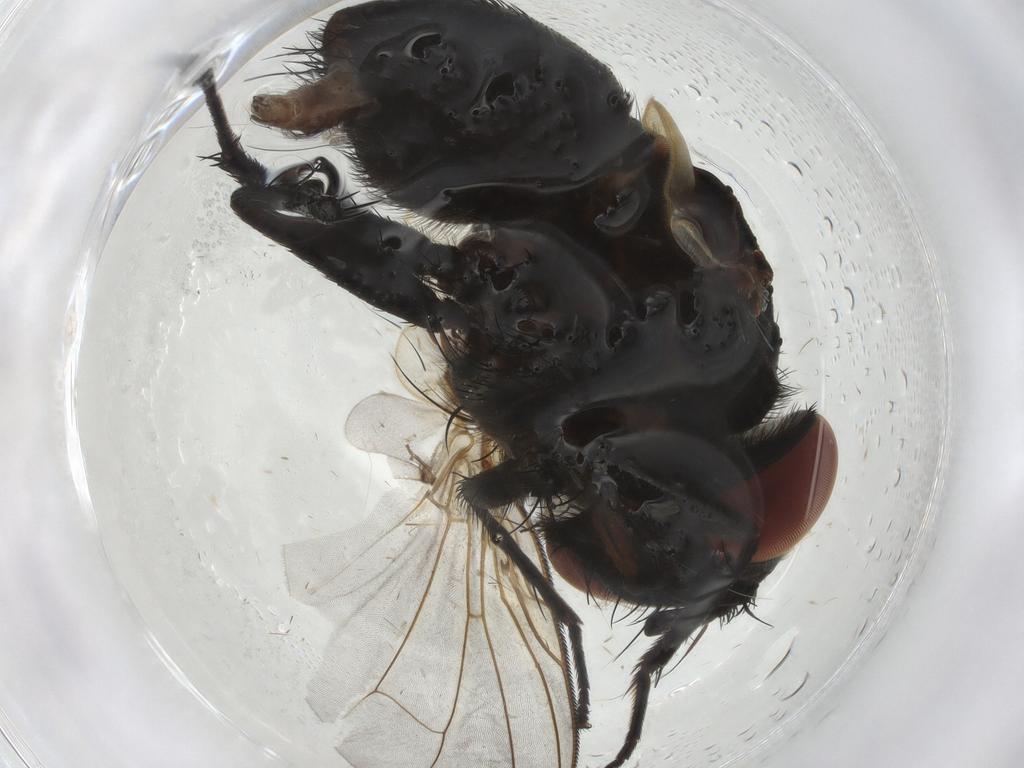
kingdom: Animalia
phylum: Arthropoda
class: Insecta
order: Diptera
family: Tachinidae
